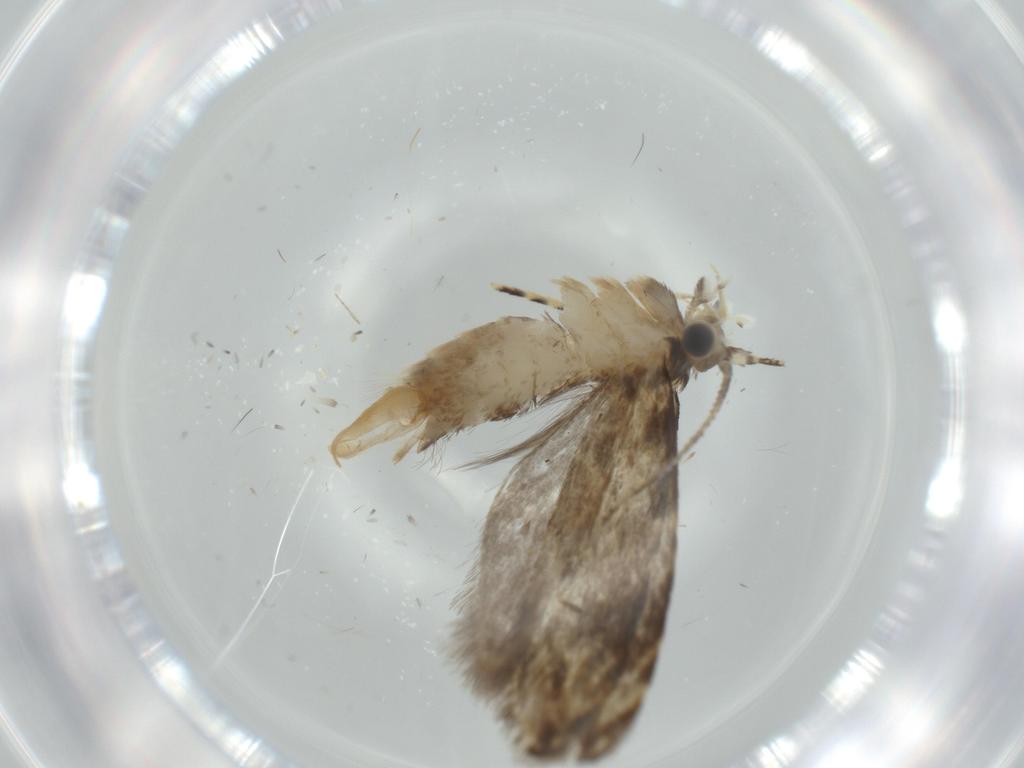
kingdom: Animalia
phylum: Arthropoda
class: Insecta
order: Lepidoptera
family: Tineidae
